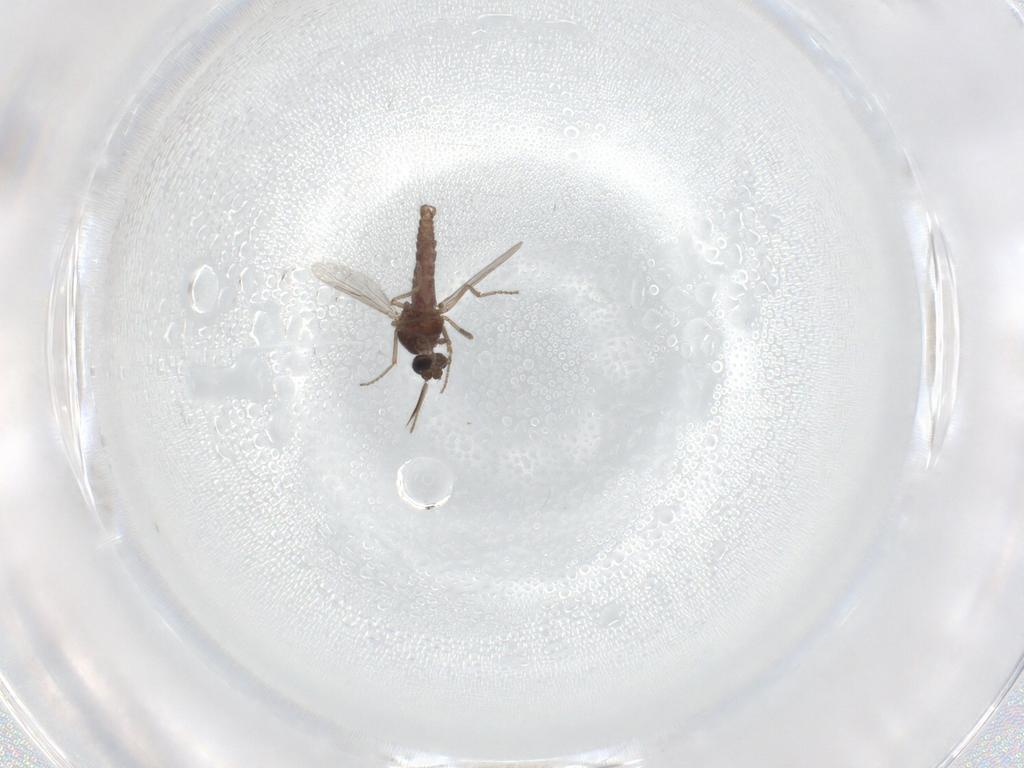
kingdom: Animalia
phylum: Arthropoda
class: Insecta
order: Diptera
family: Ceratopogonidae
